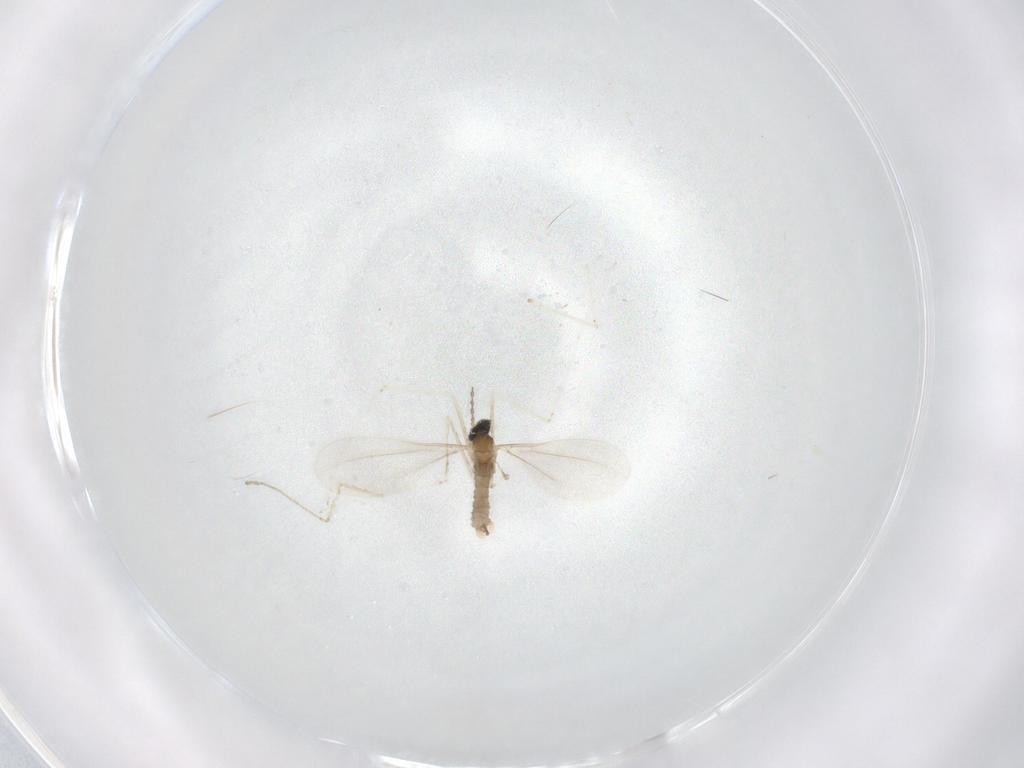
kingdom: Animalia
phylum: Arthropoda
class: Insecta
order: Diptera
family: Cecidomyiidae
